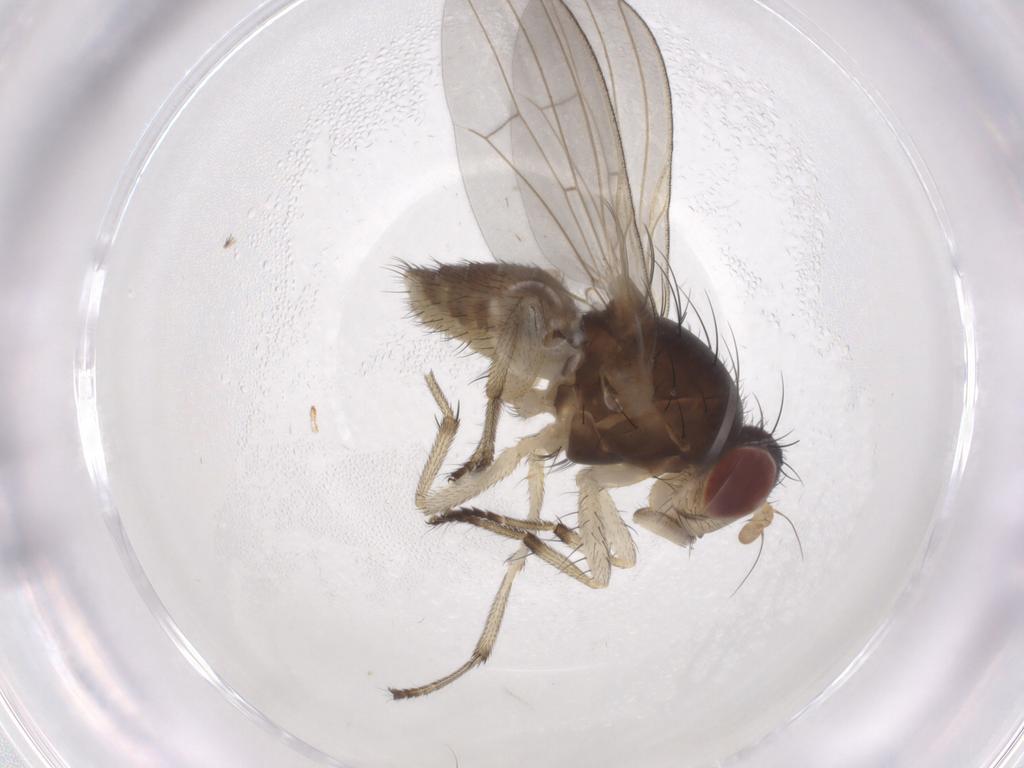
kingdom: Animalia
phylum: Arthropoda
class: Insecta
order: Diptera
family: Lauxaniidae
